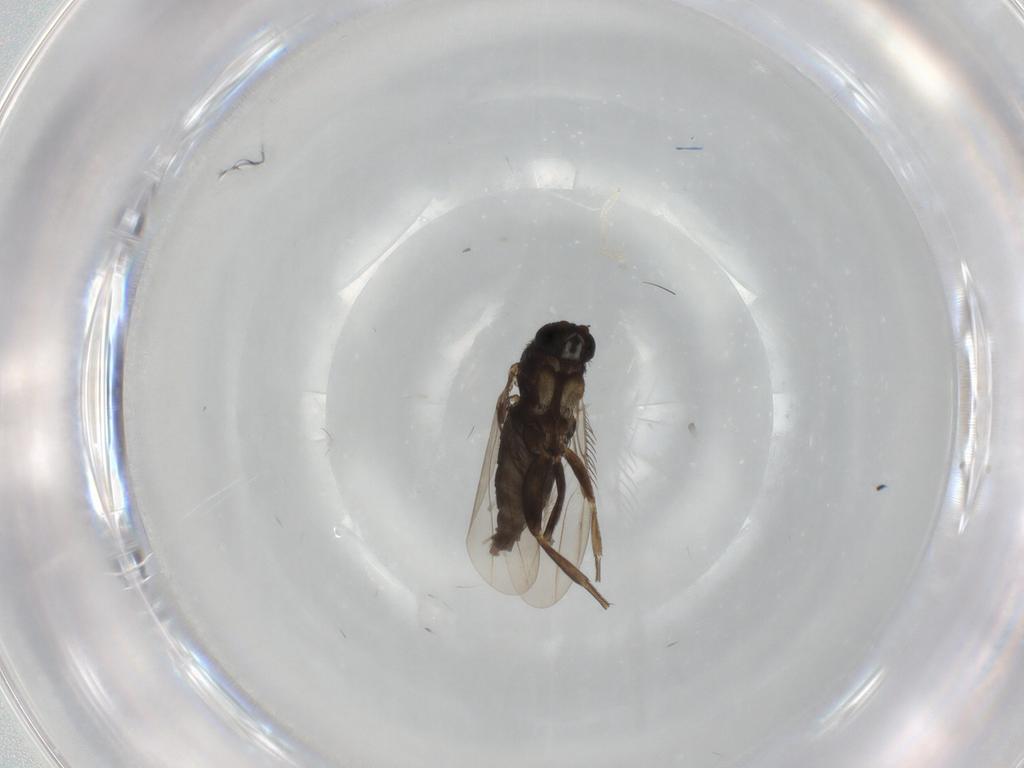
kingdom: Animalia
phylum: Arthropoda
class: Insecta
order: Diptera
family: Phoridae
